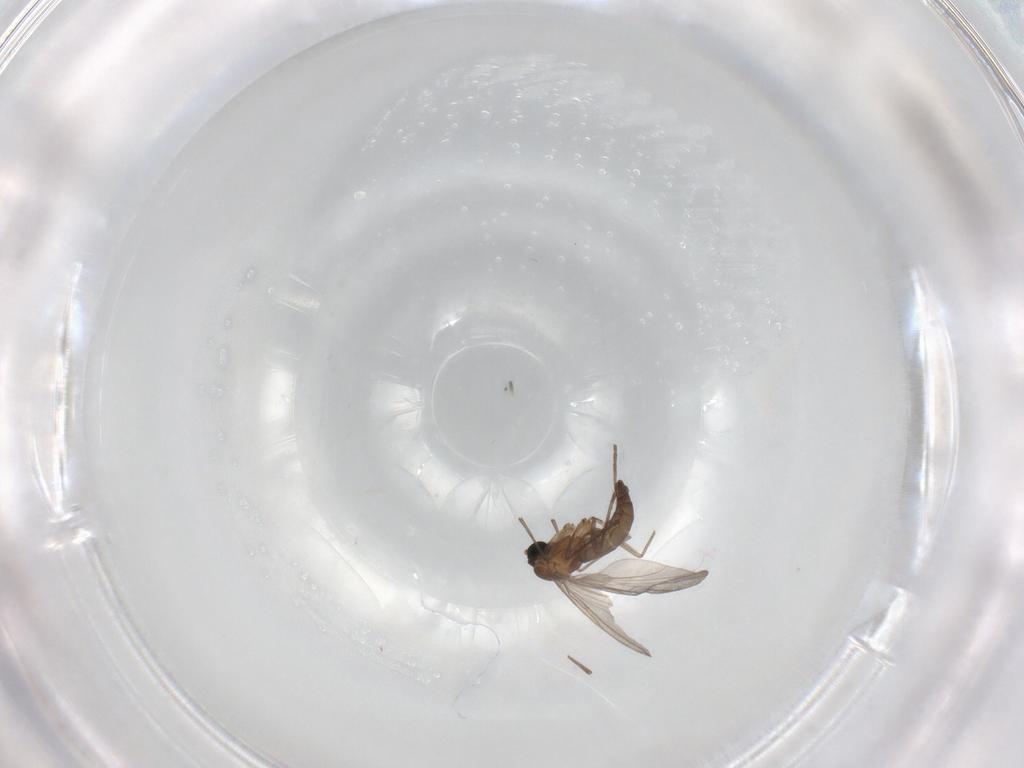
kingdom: Animalia
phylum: Arthropoda
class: Insecta
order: Diptera
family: Sciaridae
